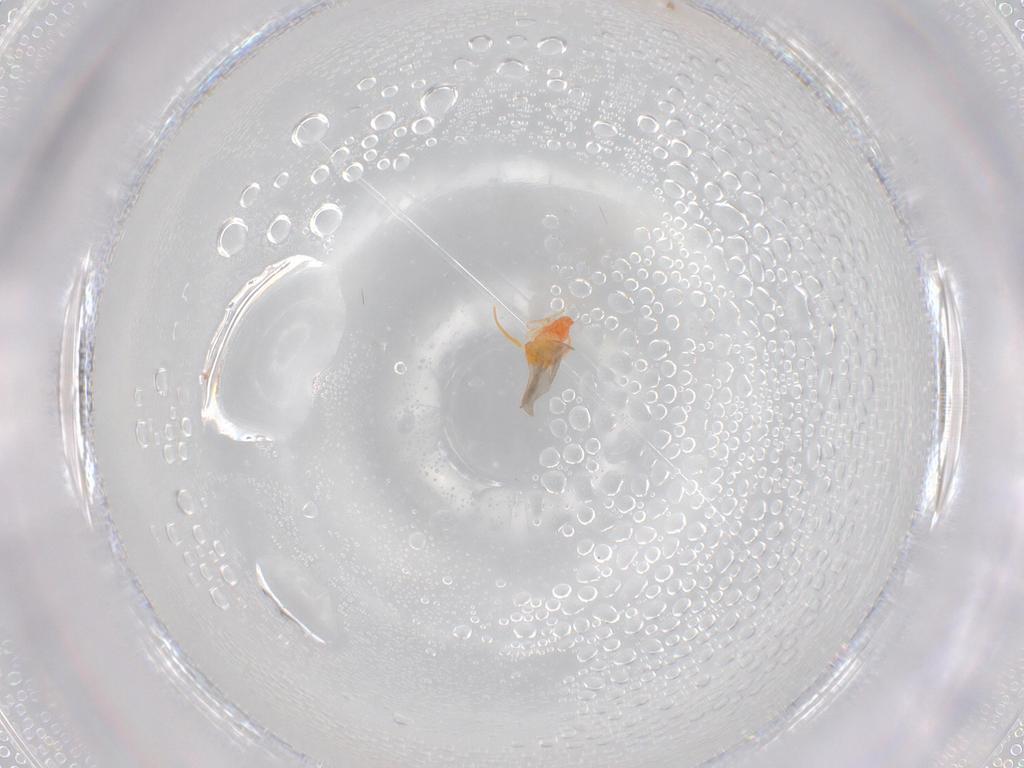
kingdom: Animalia
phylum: Arthropoda
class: Insecta
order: Hemiptera
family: Aleyrodidae
